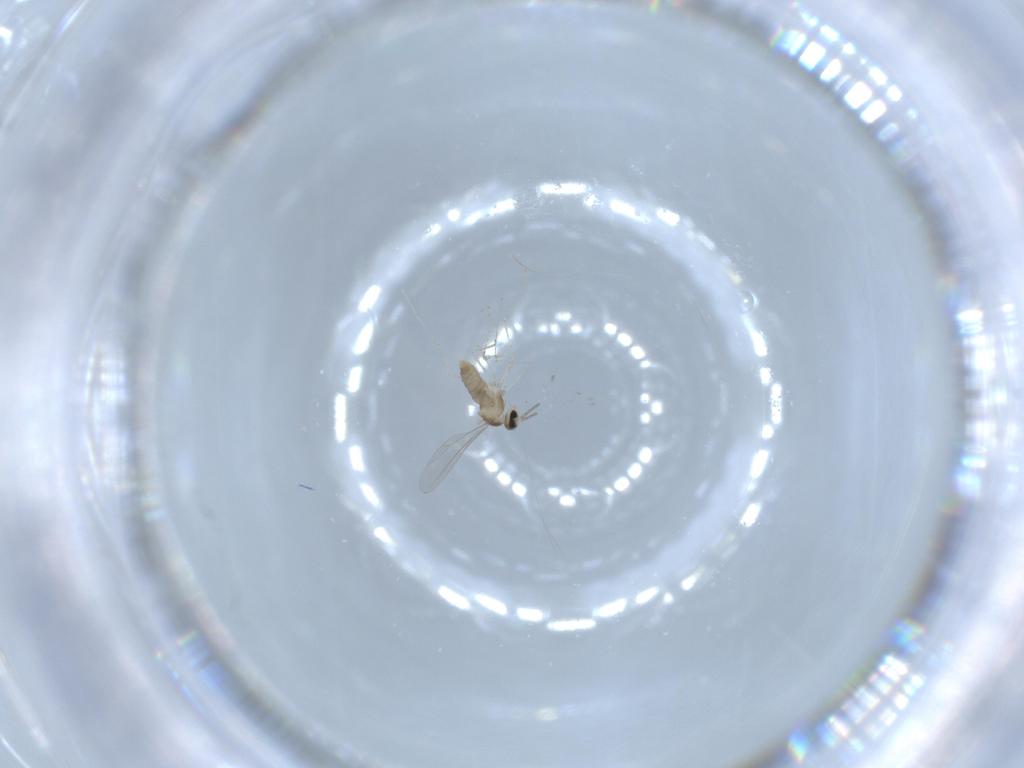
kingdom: Animalia
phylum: Arthropoda
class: Insecta
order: Diptera
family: Cecidomyiidae
